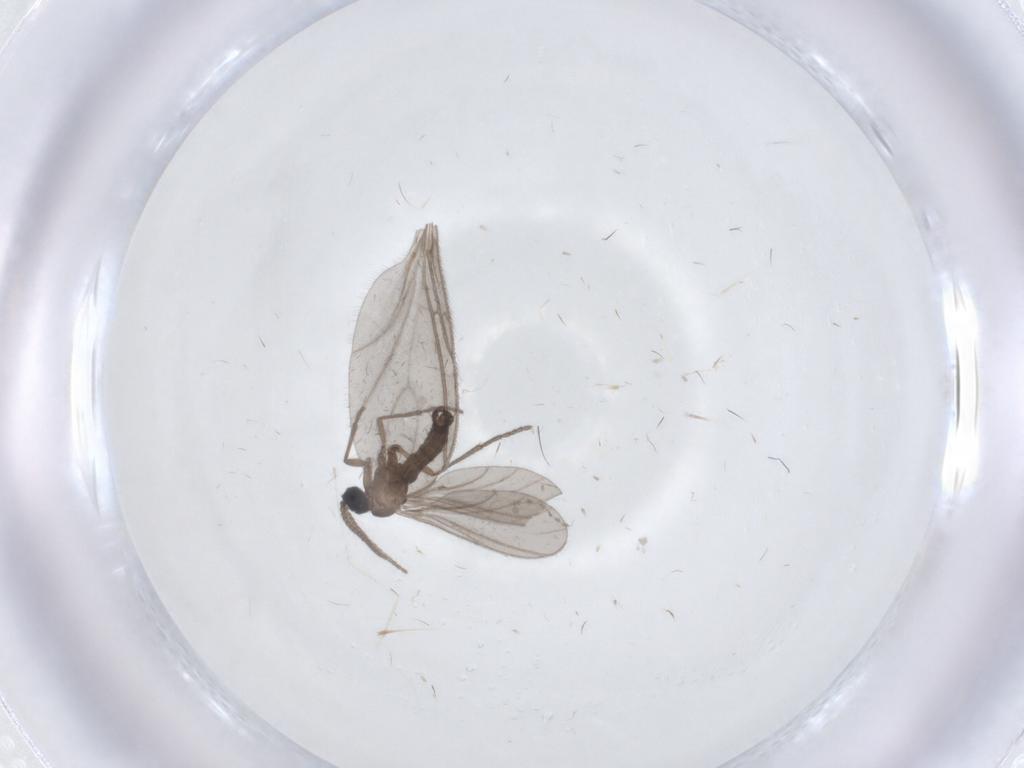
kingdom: Animalia
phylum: Arthropoda
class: Insecta
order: Diptera
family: Sciaridae
